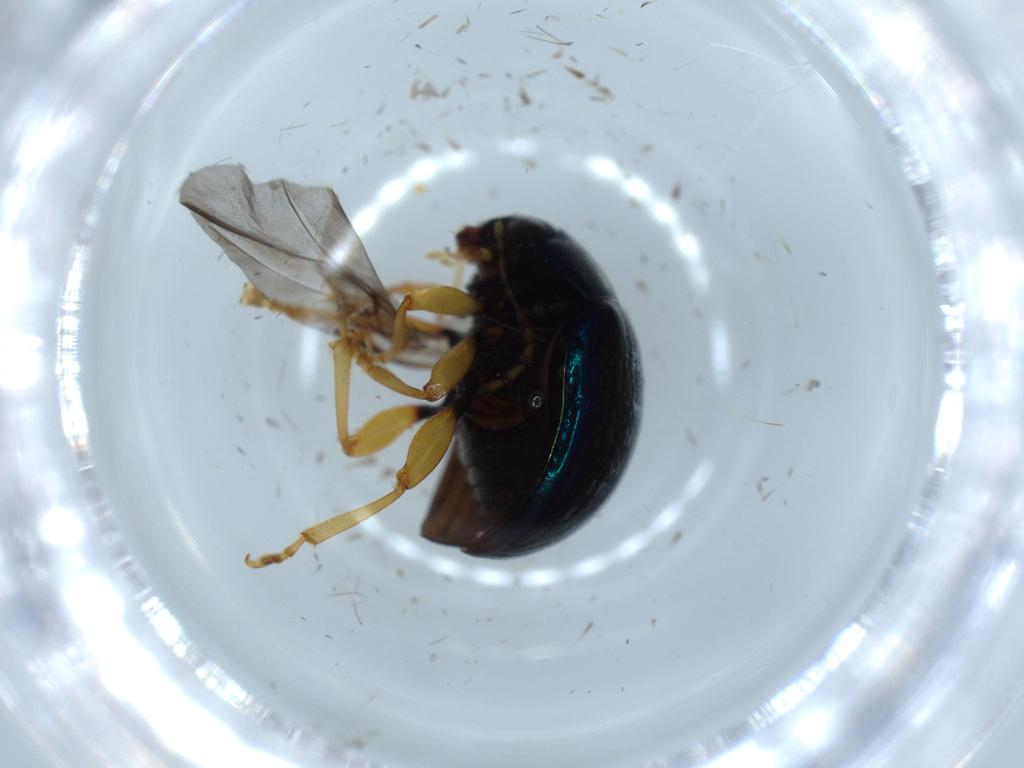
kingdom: Animalia
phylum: Arthropoda
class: Insecta
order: Coleoptera
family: Chrysomelidae
